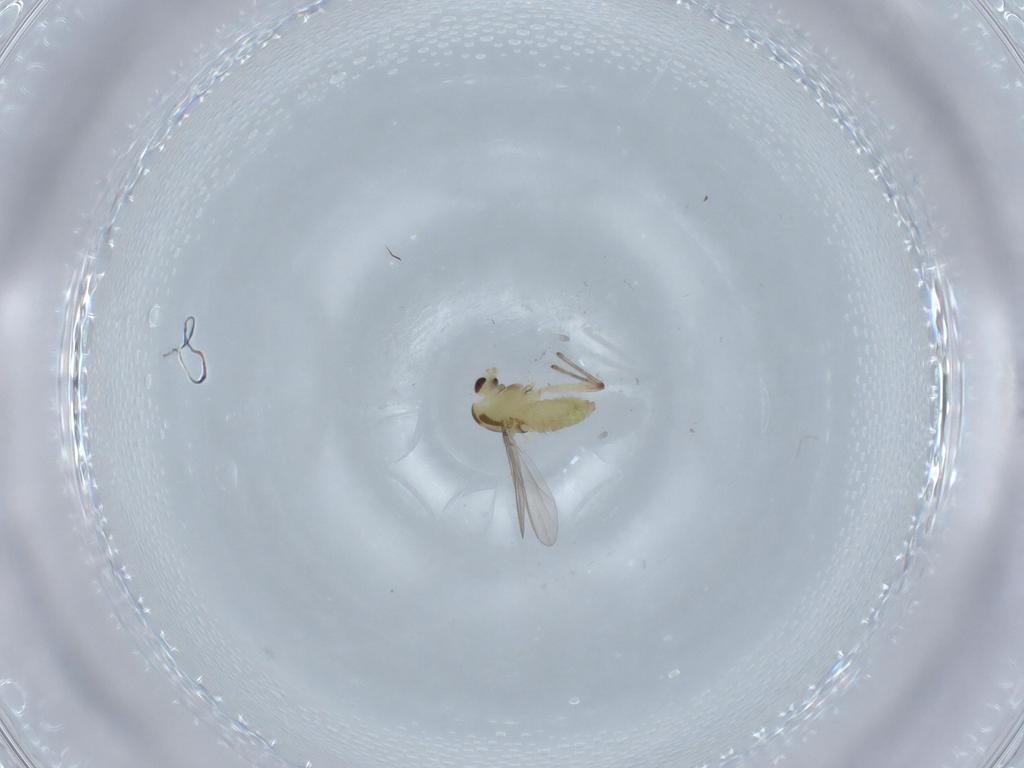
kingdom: Animalia
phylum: Arthropoda
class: Insecta
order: Diptera
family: Chironomidae
